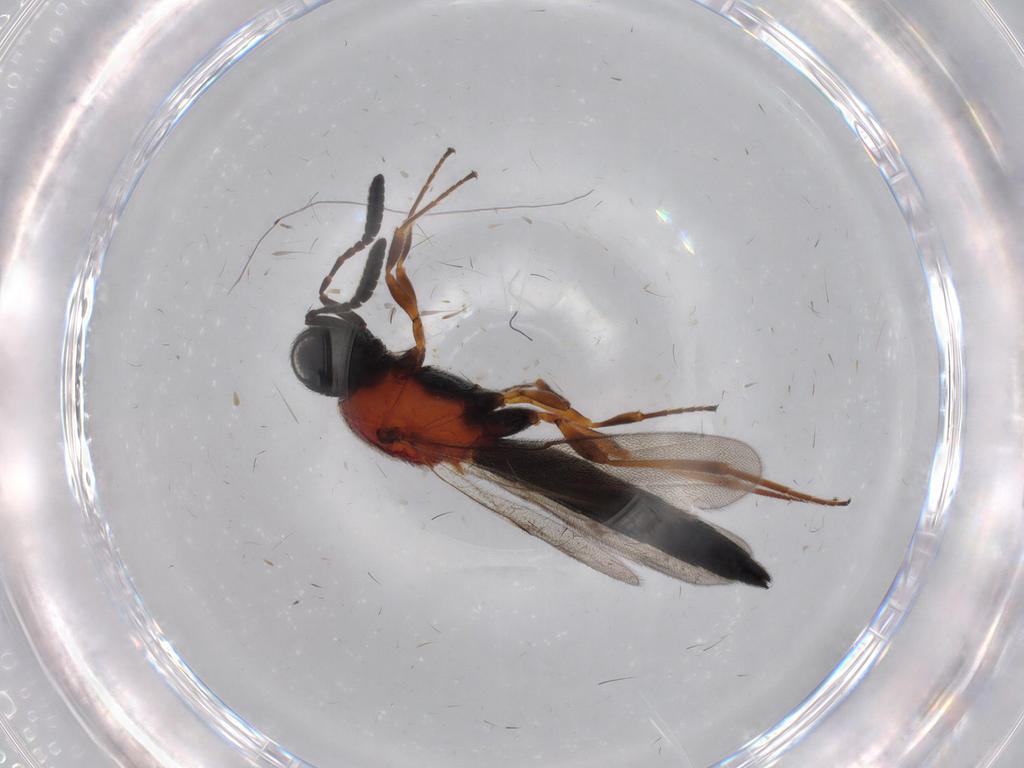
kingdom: Animalia
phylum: Arthropoda
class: Insecta
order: Hymenoptera
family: Scelionidae
